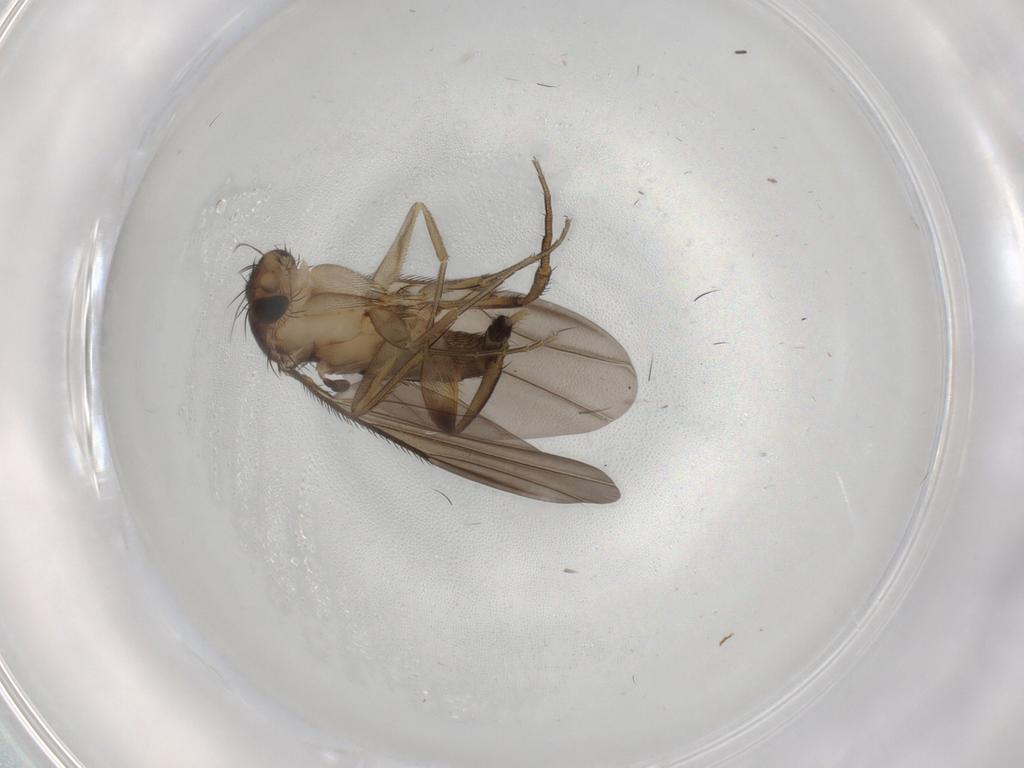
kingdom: Animalia
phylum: Arthropoda
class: Insecta
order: Diptera
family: Phoridae
